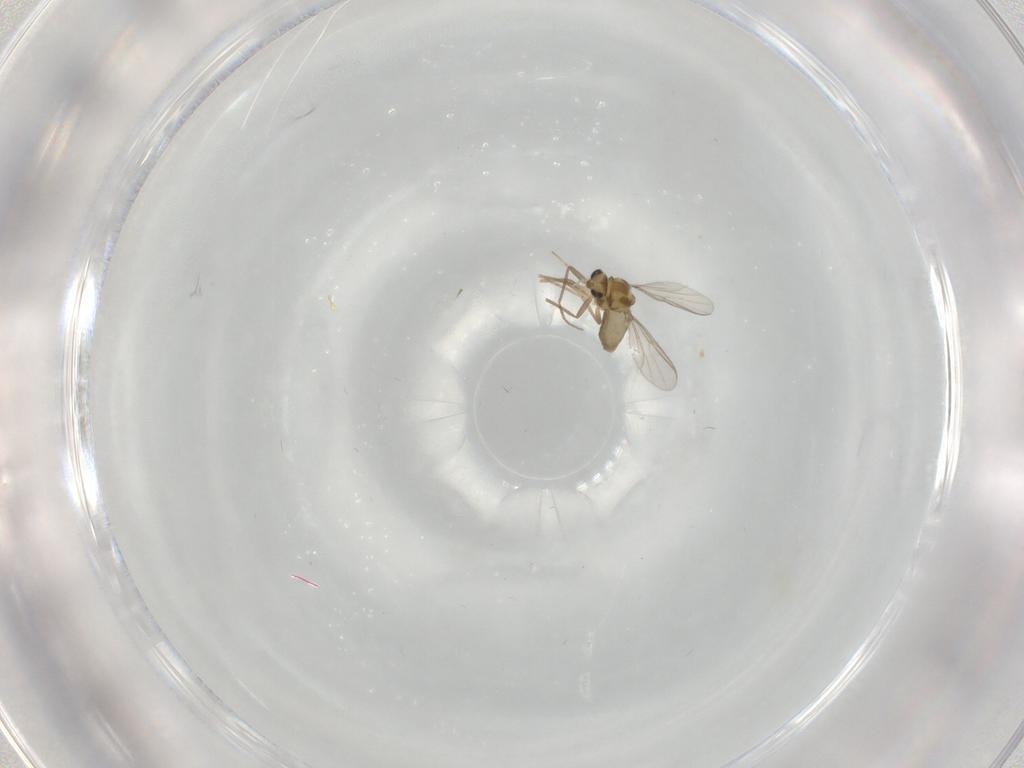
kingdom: Animalia
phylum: Arthropoda
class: Insecta
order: Diptera
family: Chironomidae
